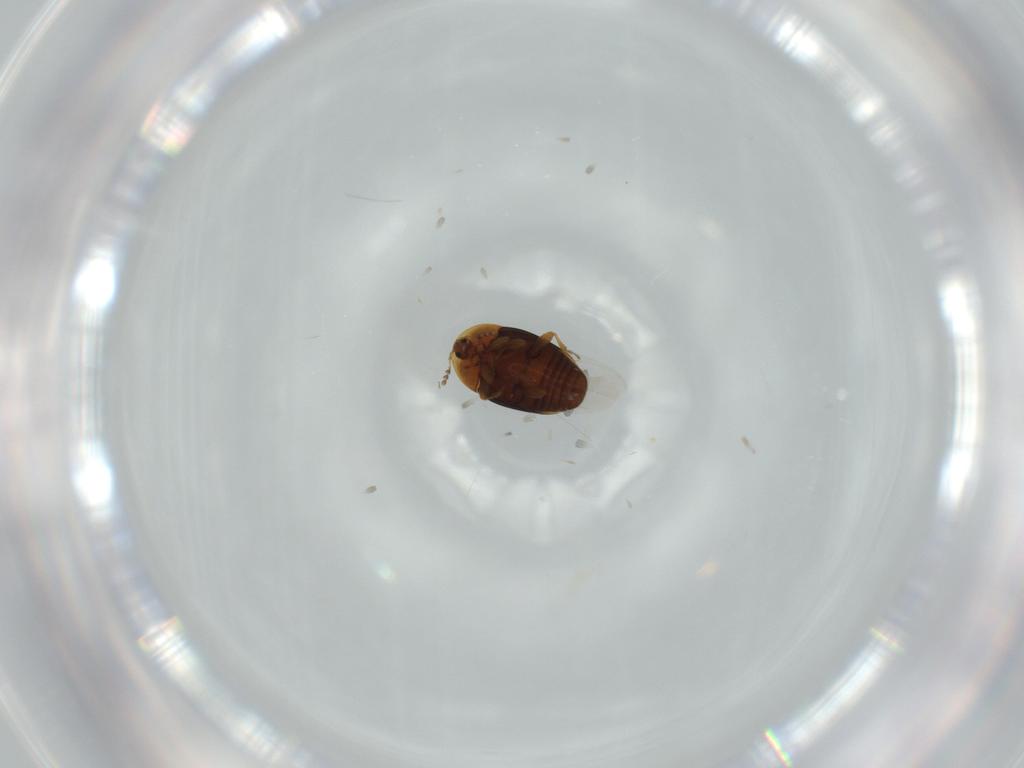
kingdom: Animalia
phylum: Arthropoda
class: Insecta
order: Coleoptera
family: Corylophidae
